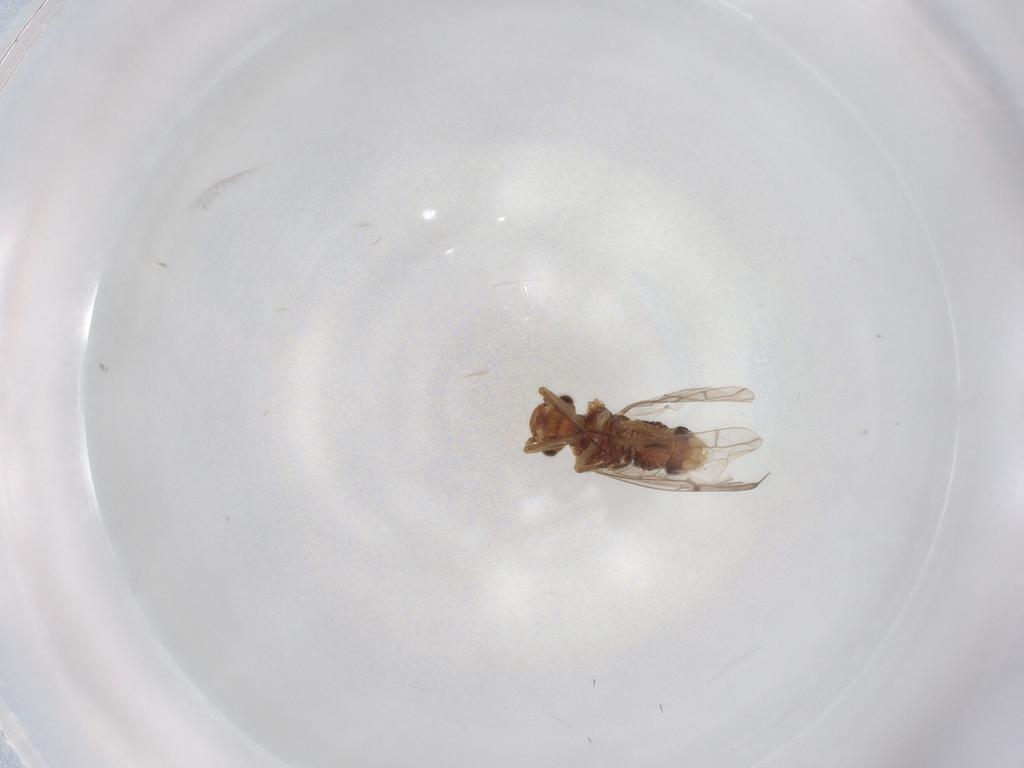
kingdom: Animalia
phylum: Arthropoda
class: Insecta
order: Psocodea
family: Lachesillidae
